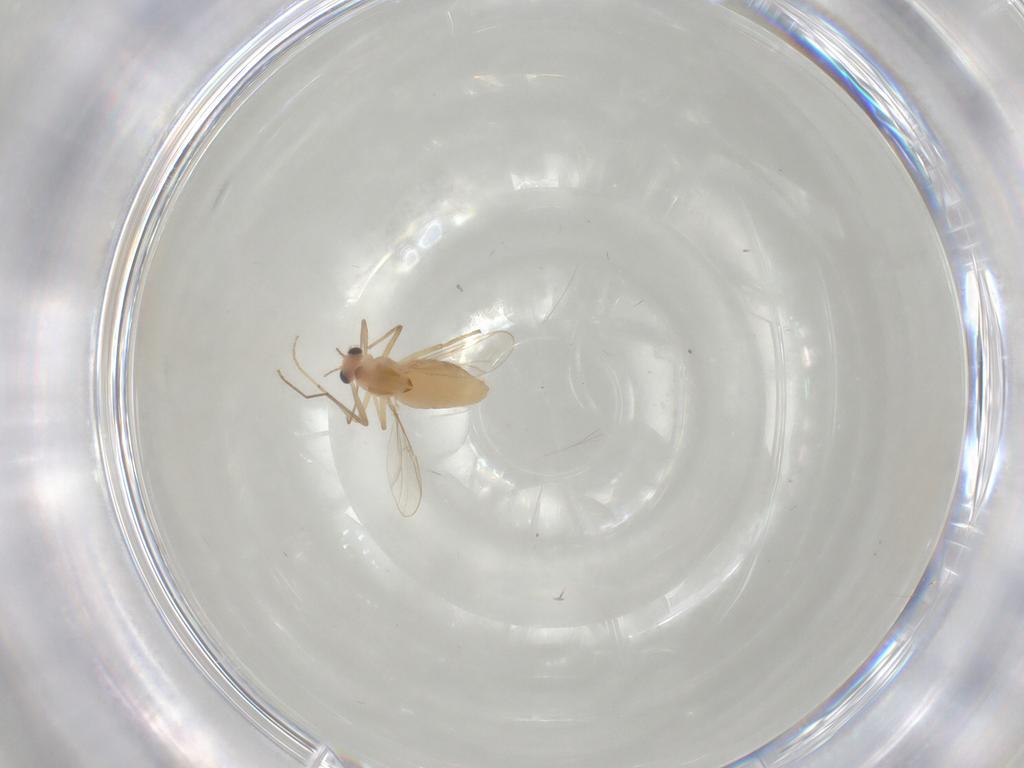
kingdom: Animalia
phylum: Arthropoda
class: Insecta
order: Diptera
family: Chironomidae
